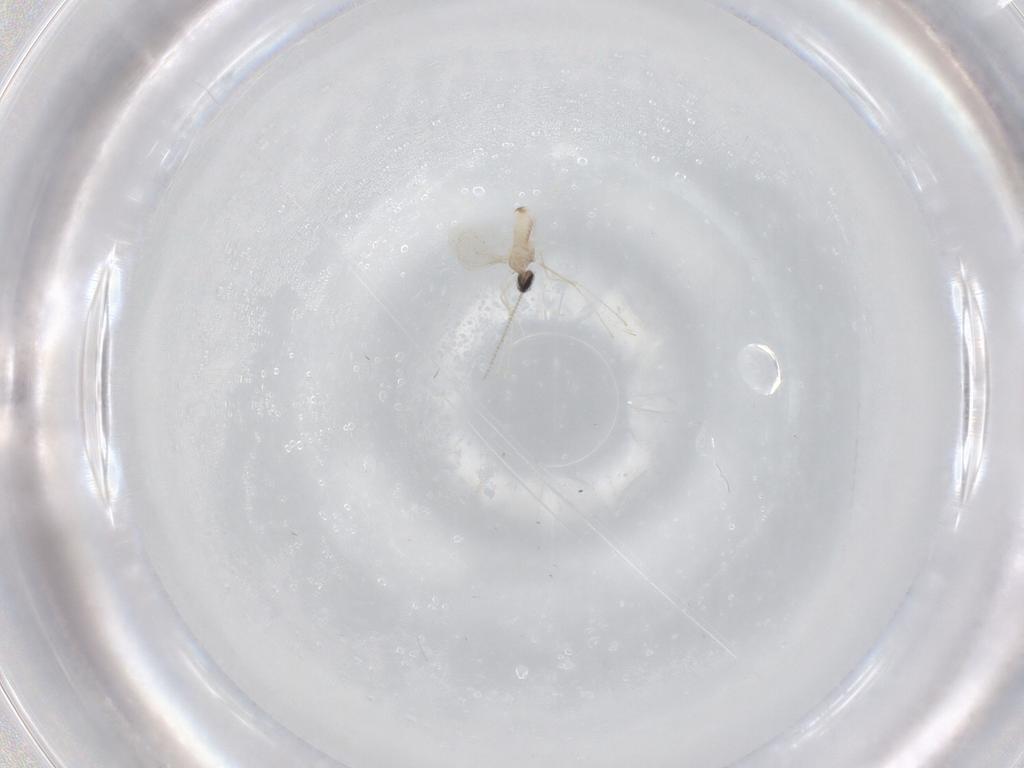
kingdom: Animalia
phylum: Arthropoda
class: Insecta
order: Diptera
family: Cecidomyiidae
